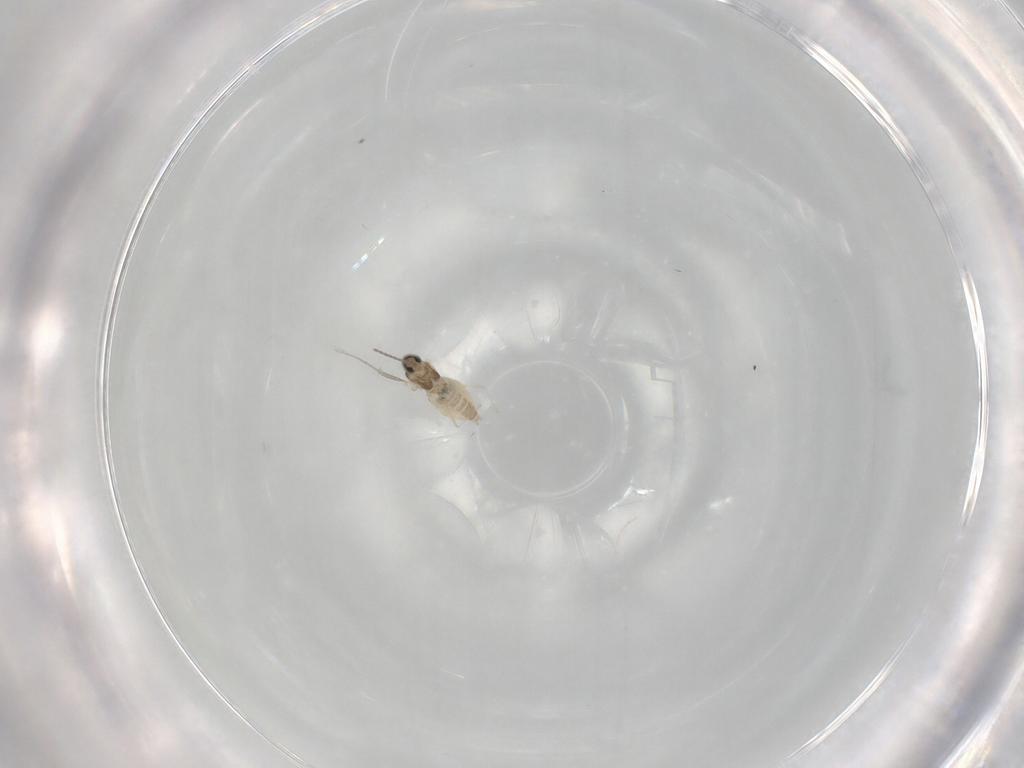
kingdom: Animalia
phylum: Arthropoda
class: Insecta
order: Diptera
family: Cecidomyiidae
